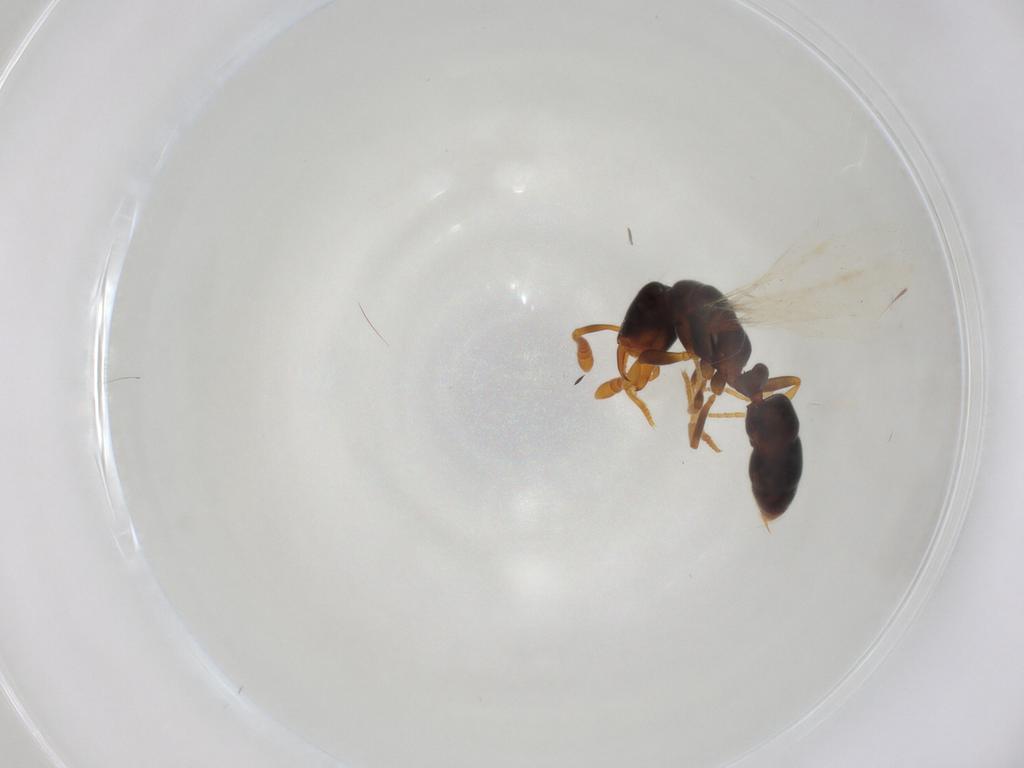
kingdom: Animalia
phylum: Arthropoda
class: Insecta
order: Hymenoptera
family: Formicidae
